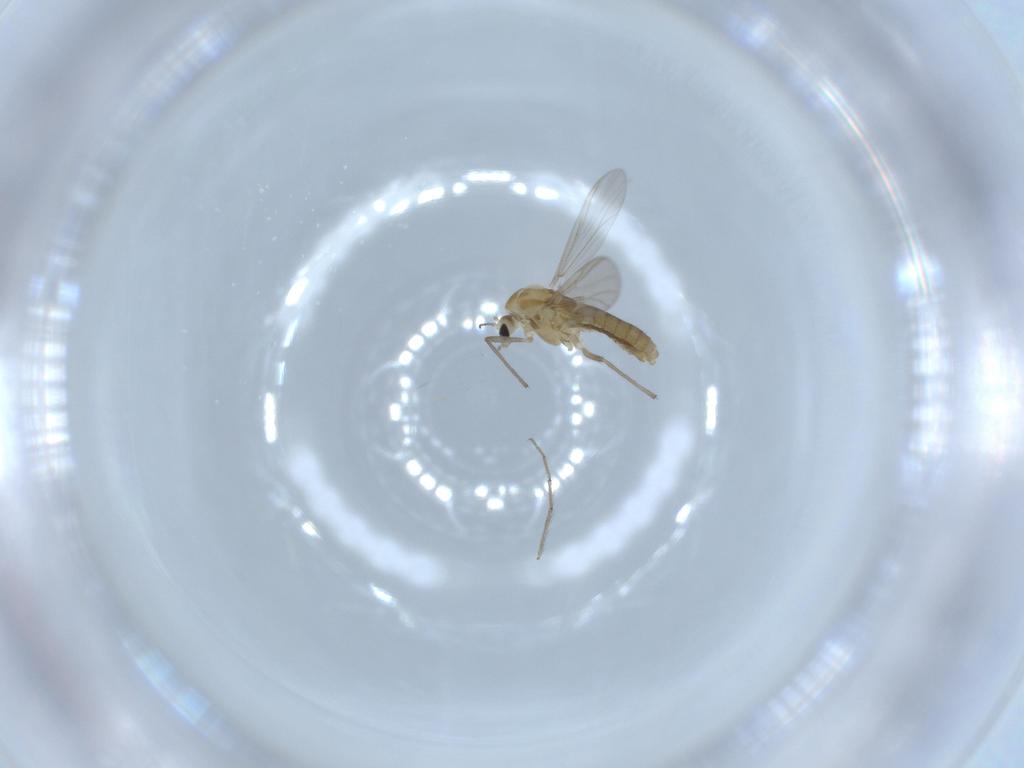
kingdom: Animalia
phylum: Arthropoda
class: Insecta
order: Diptera
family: Chironomidae
